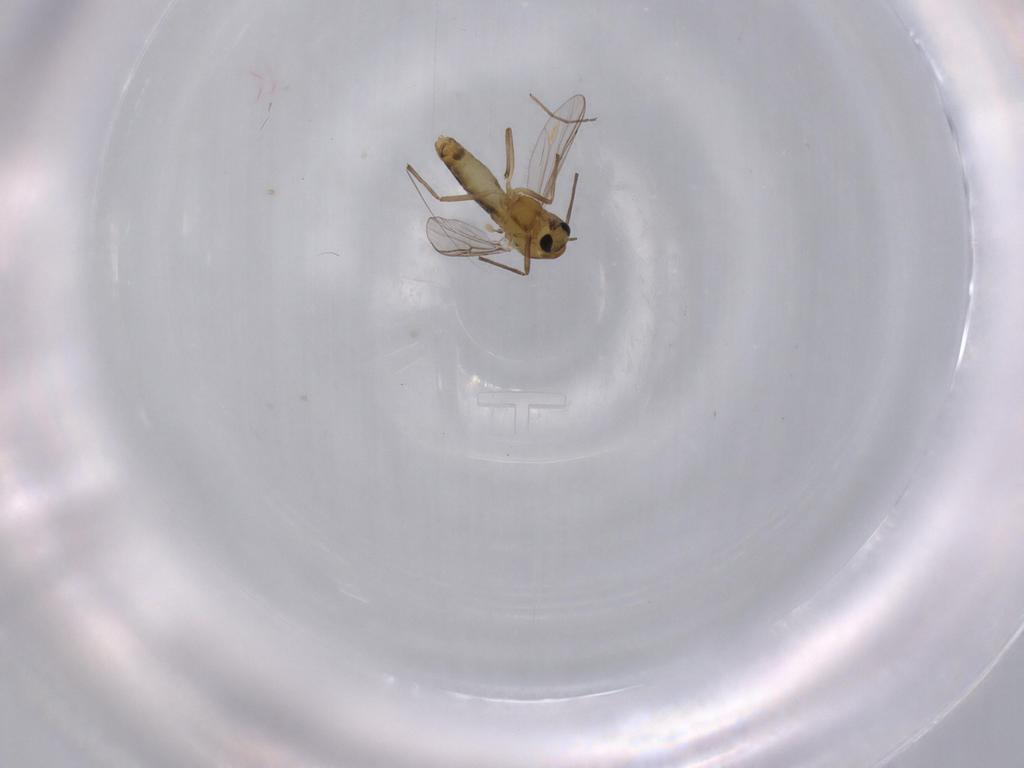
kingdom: Animalia
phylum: Arthropoda
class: Insecta
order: Diptera
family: Chironomidae
